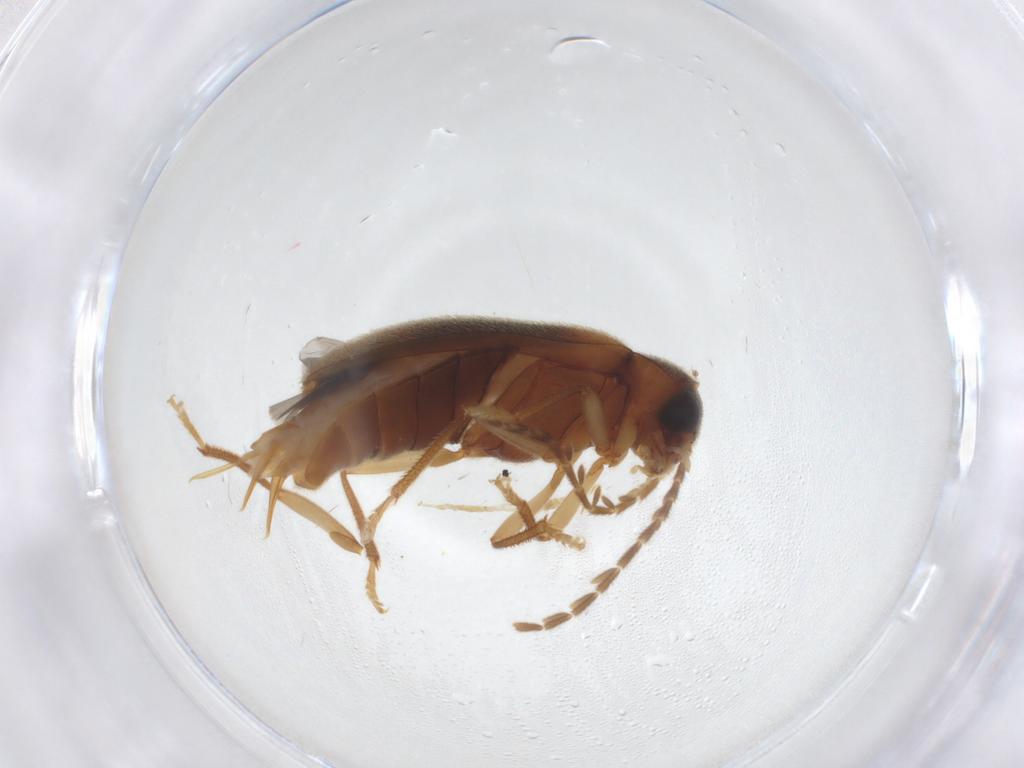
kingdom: Animalia
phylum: Arthropoda
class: Insecta
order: Coleoptera
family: Ptilodactylidae
